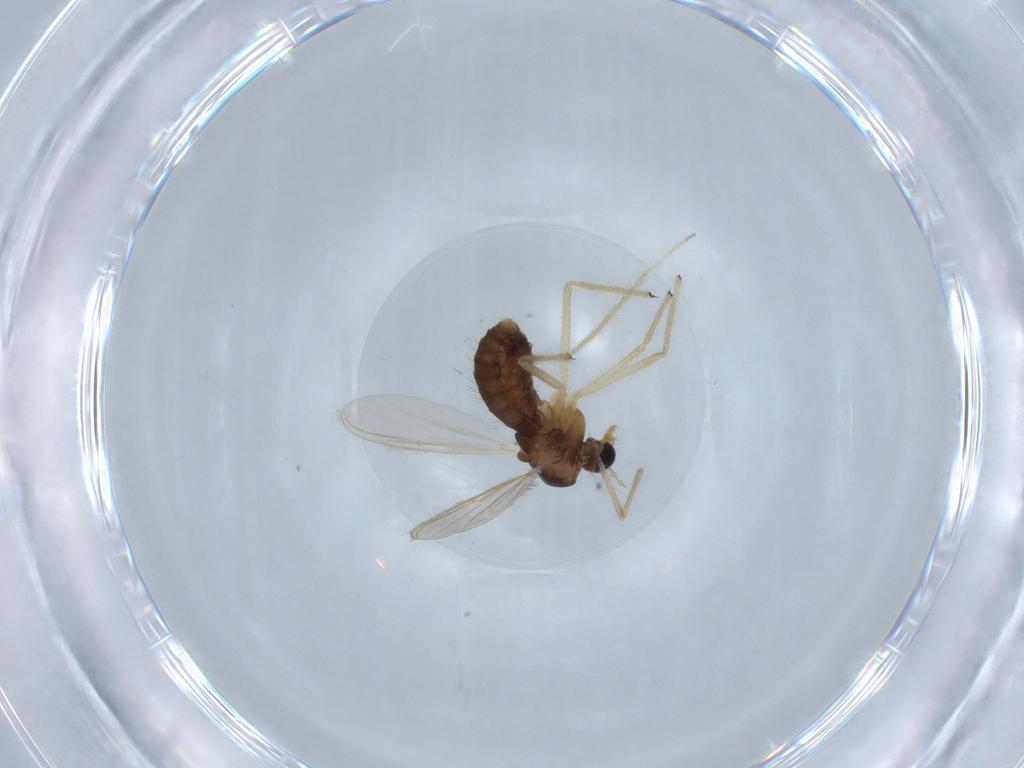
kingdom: Animalia
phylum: Arthropoda
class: Insecta
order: Diptera
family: Chironomidae
